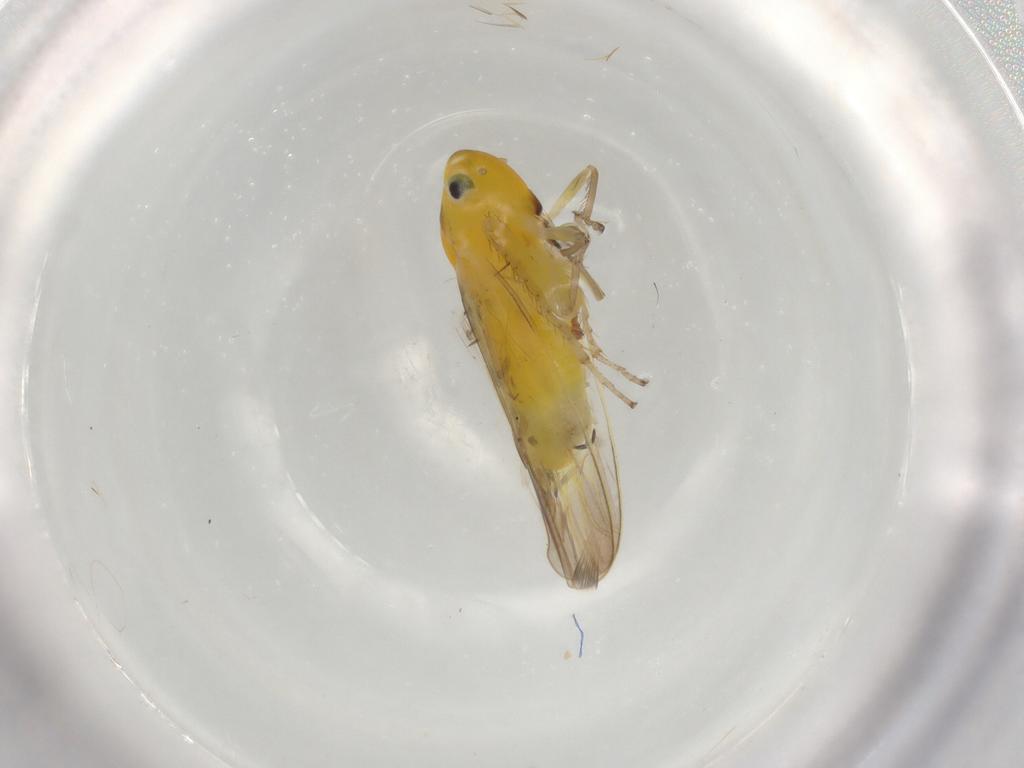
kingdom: Animalia
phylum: Arthropoda
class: Insecta
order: Hemiptera
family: Cicadellidae
